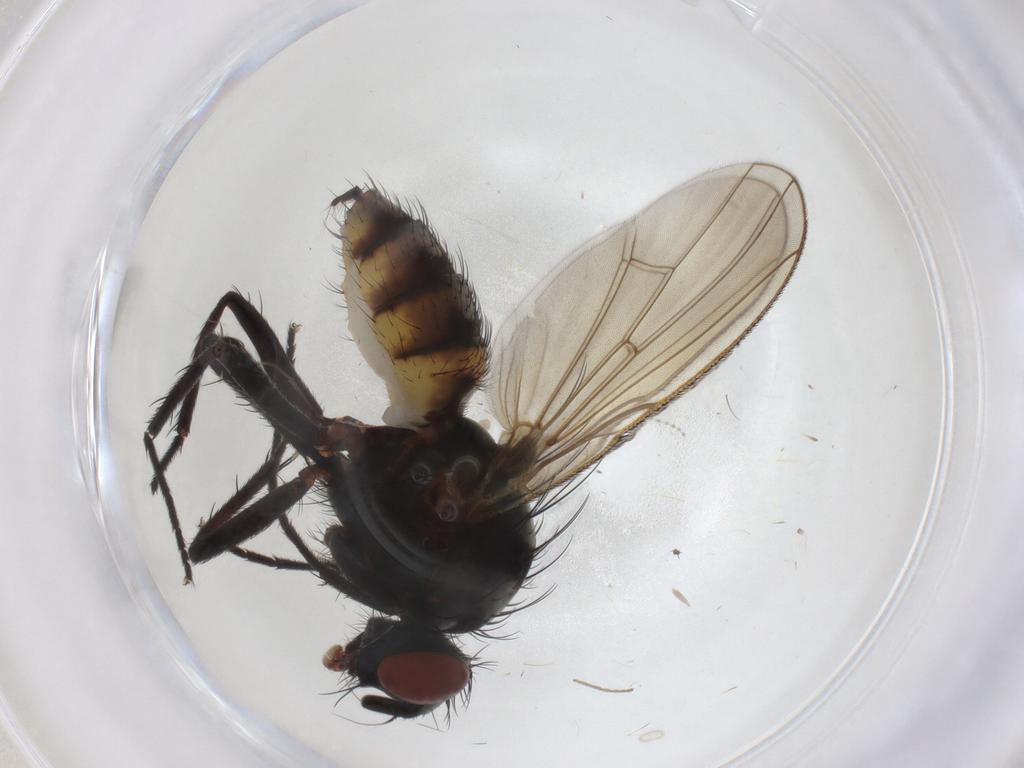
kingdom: Animalia
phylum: Arthropoda
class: Insecta
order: Diptera
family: Anthomyiidae
